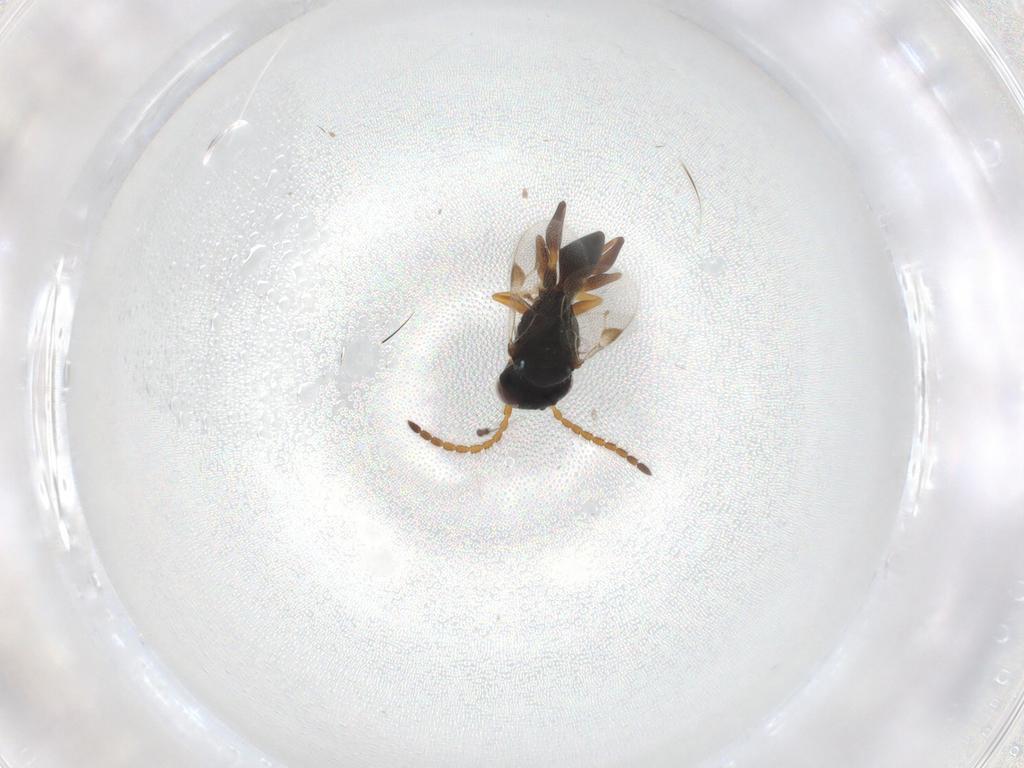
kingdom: Animalia
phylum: Arthropoda
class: Insecta
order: Hymenoptera
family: Dryinidae
